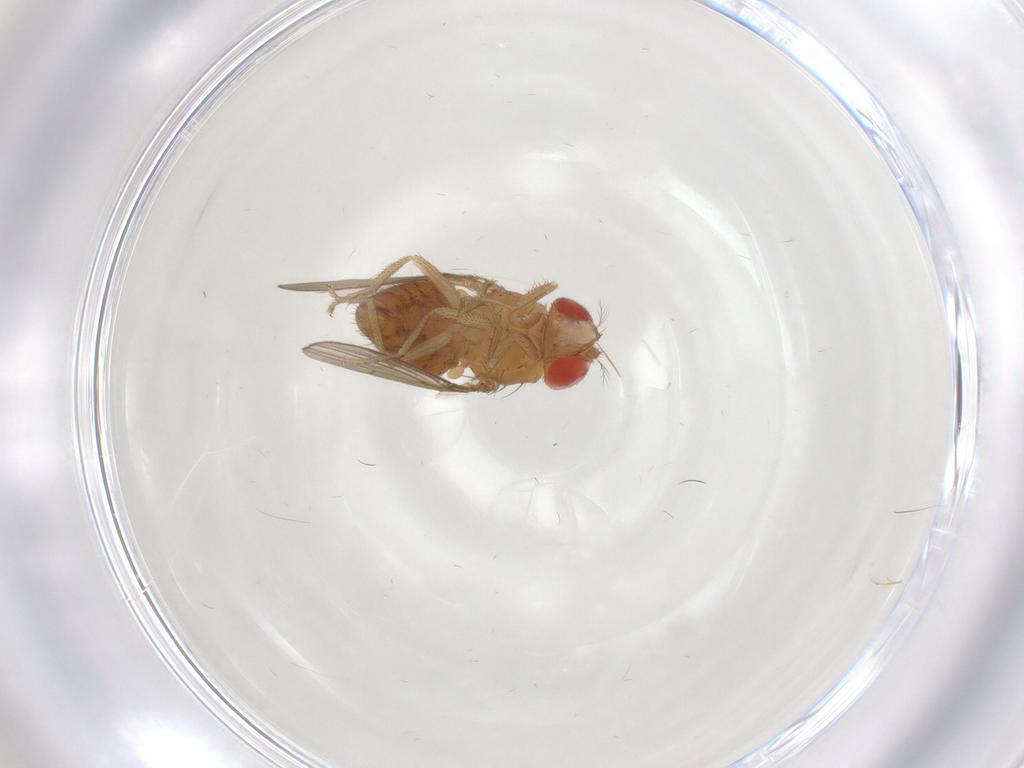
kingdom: Animalia
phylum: Arthropoda
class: Insecta
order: Diptera
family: Drosophilidae
